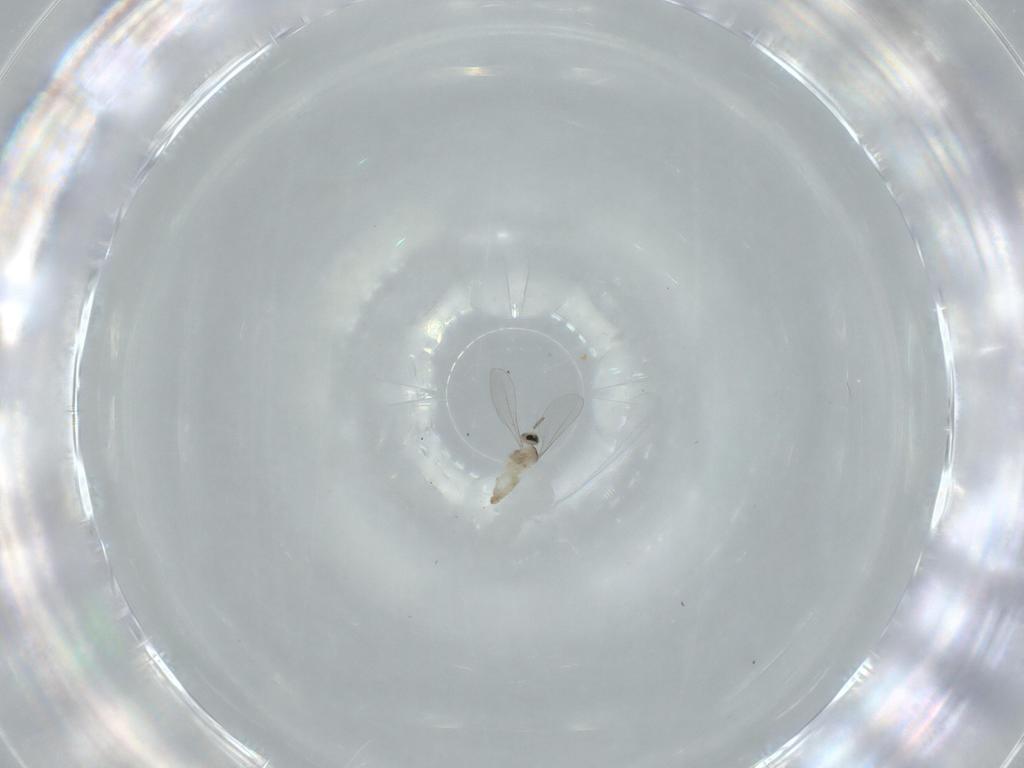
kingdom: Animalia
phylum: Arthropoda
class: Insecta
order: Diptera
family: Cecidomyiidae
